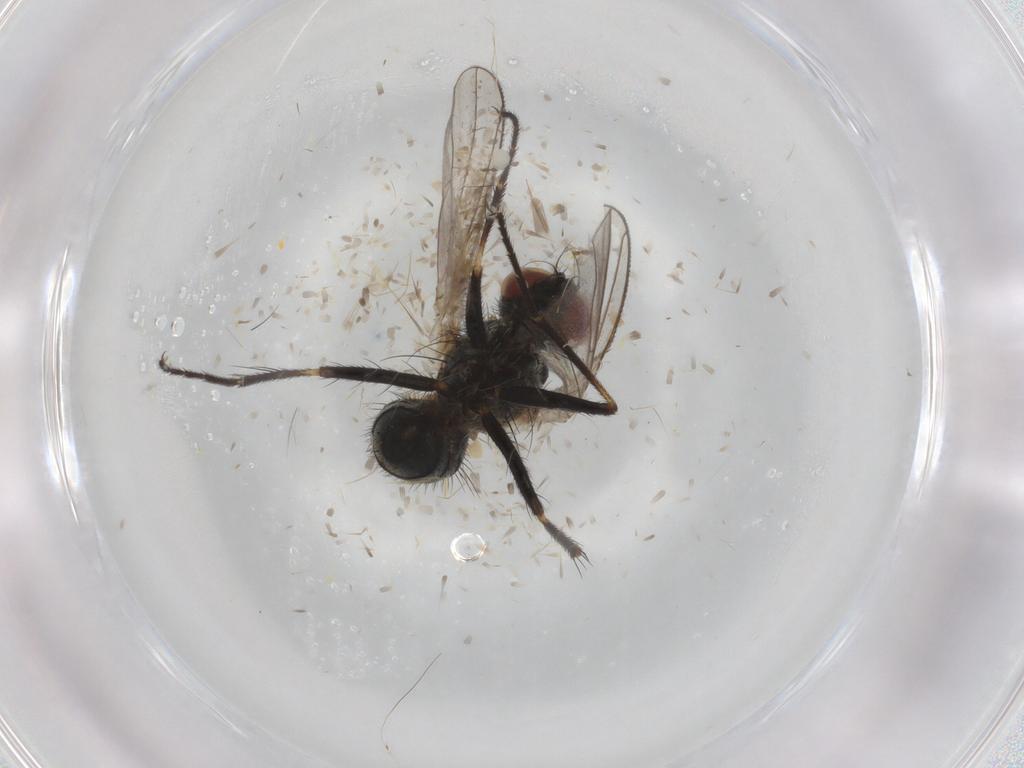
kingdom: Animalia
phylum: Arthropoda
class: Insecta
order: Diptera
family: Muscidae
